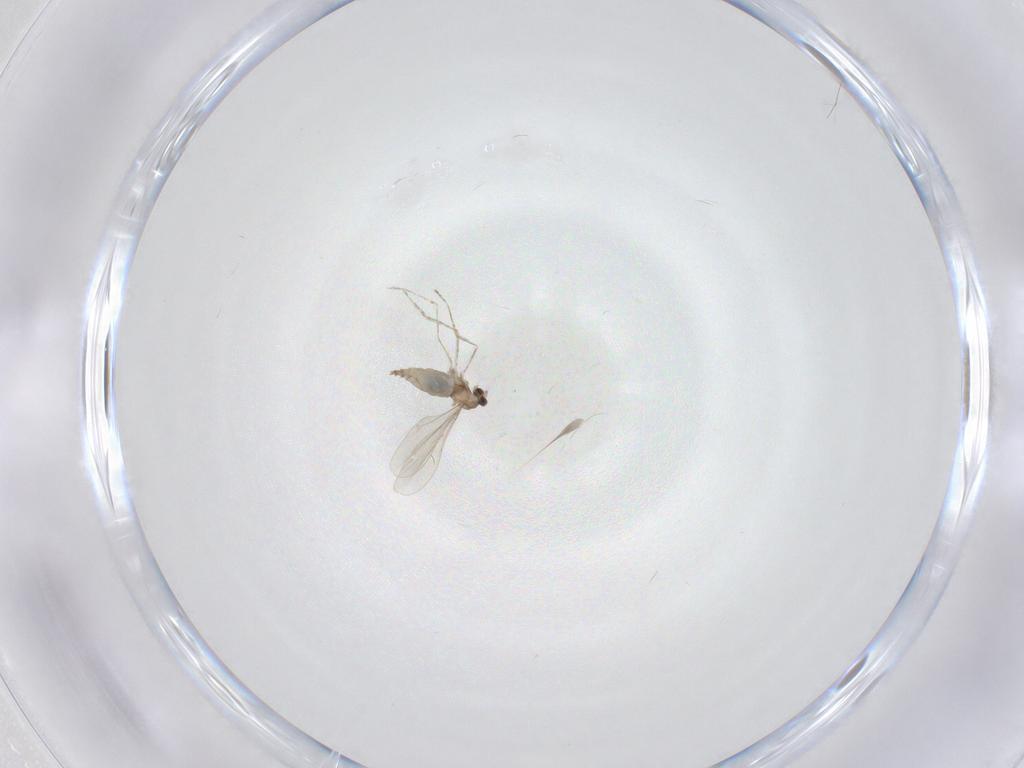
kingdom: Animalia
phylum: Arthropoda
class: Insecta
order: Diptera
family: Cecidomyiidae
